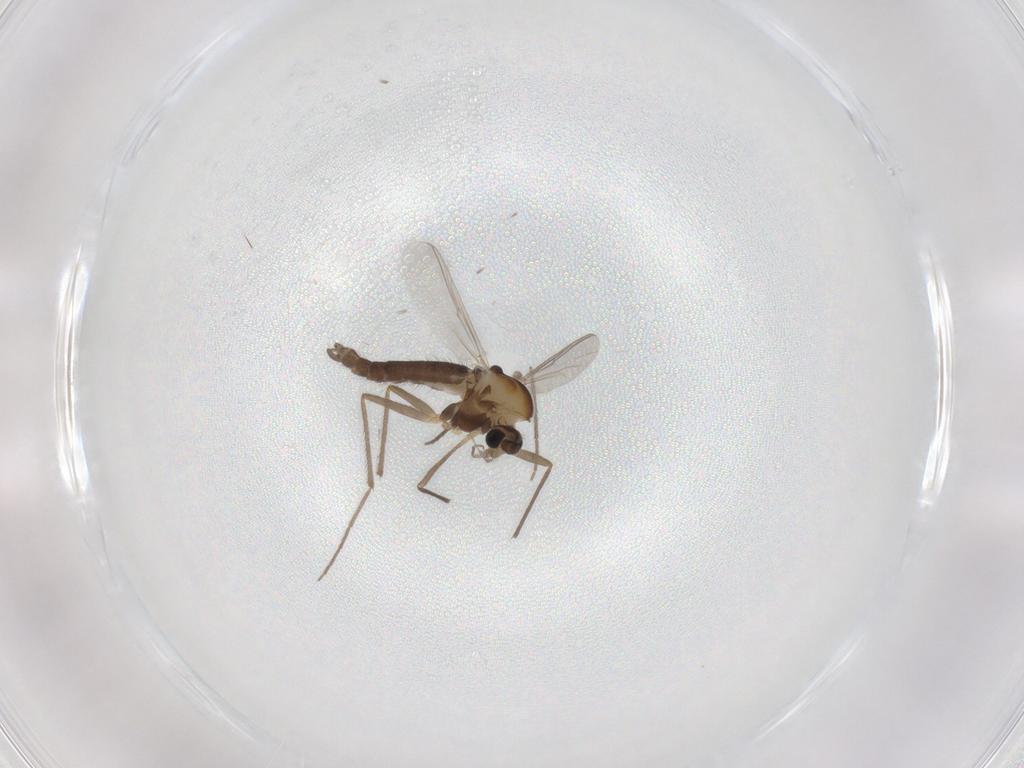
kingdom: Animalia
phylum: Arthropoda
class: Insecta
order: Diptera
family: Chironomidae
